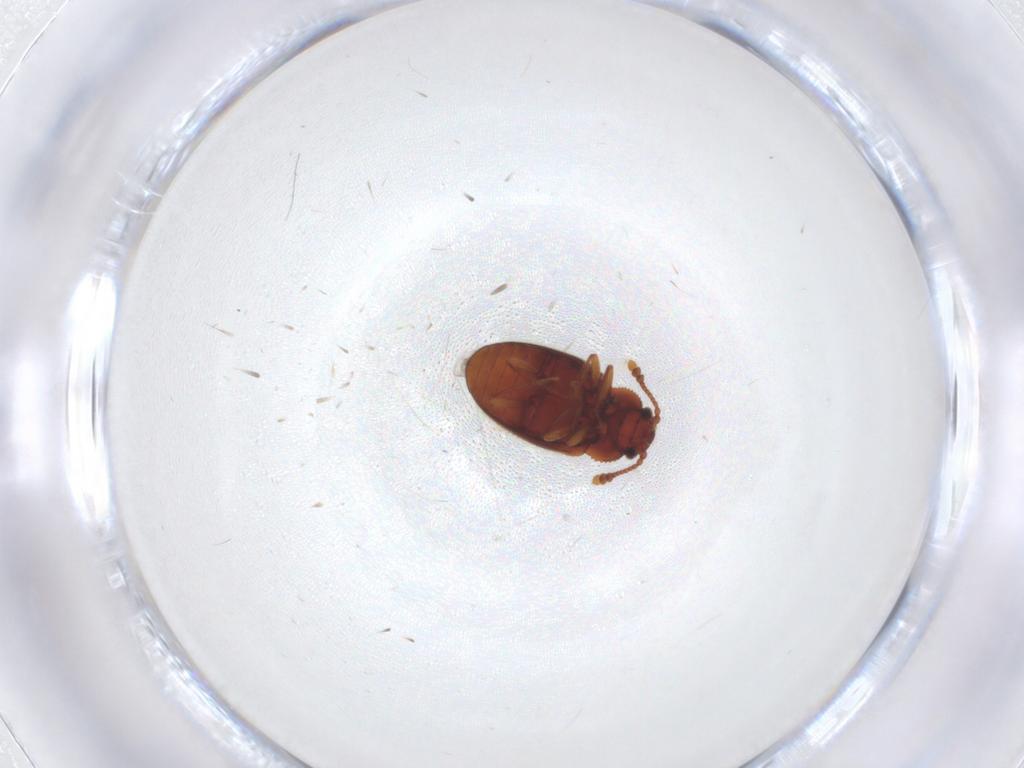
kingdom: Animalia
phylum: Arthropoda
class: Insecta
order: Coleoptera
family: Cryptophagidae
